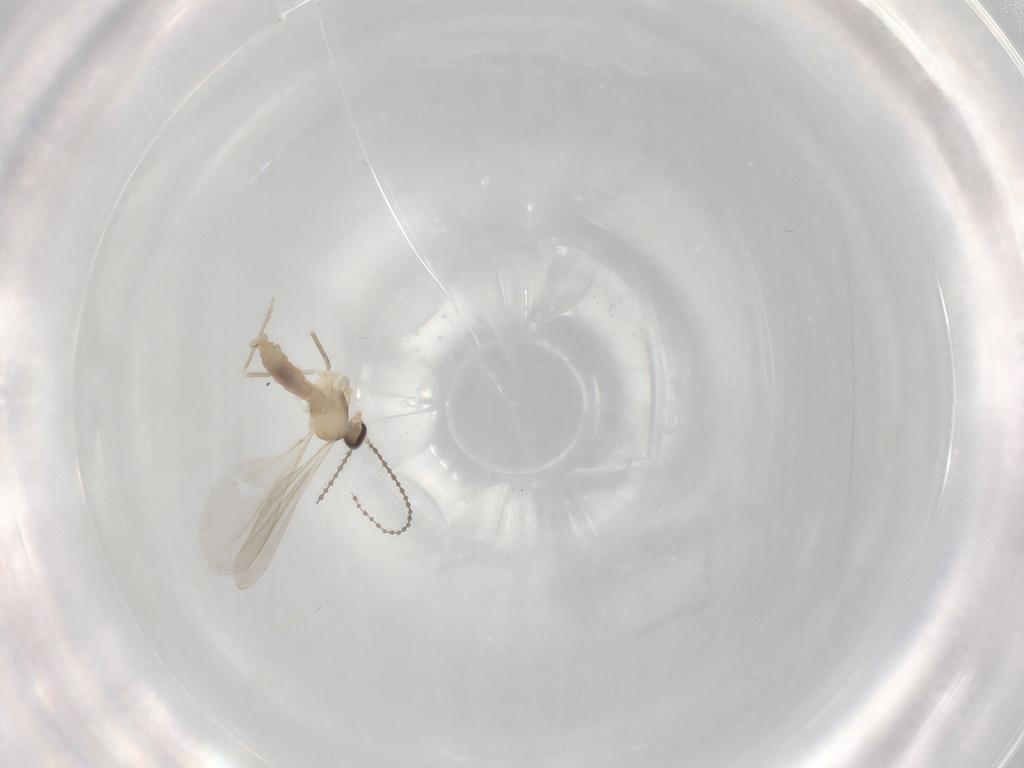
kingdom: Animalia
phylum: Arthropoda
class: Insecta
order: Diptera
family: Cecidomyiidae
